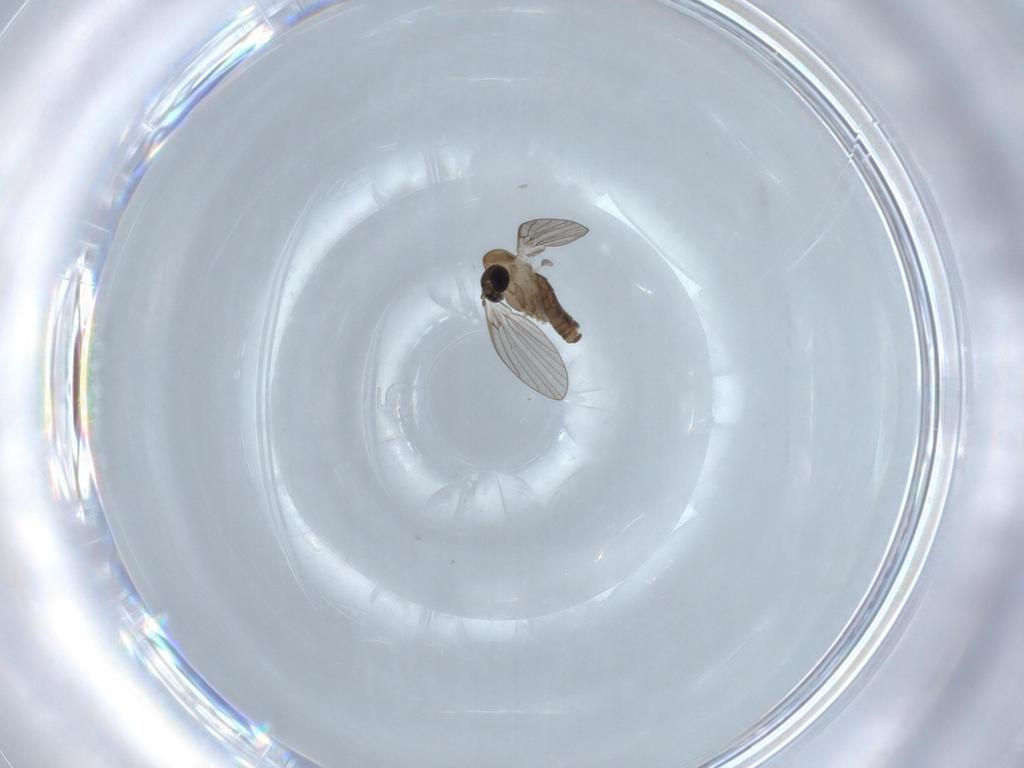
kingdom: Animalia
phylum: Arthropoda
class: Insecta
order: Diptera
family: Psychodidae
